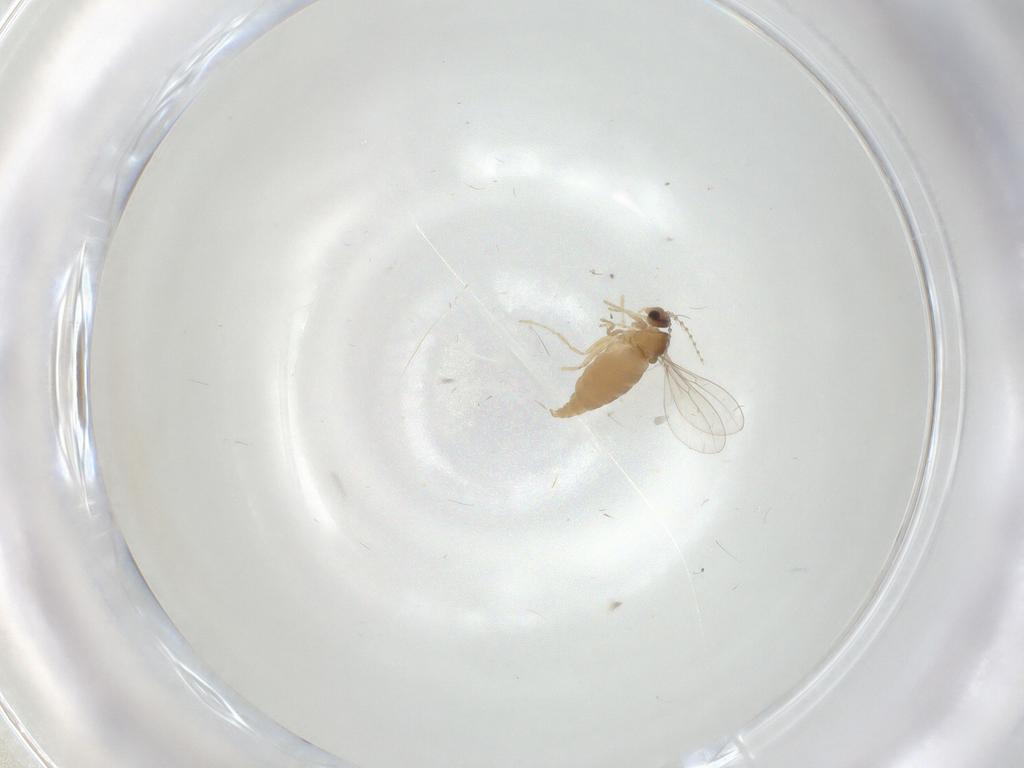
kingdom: Animalia
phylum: Arthropoda
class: Insecta
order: Diptera
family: Cecidomyiidae
